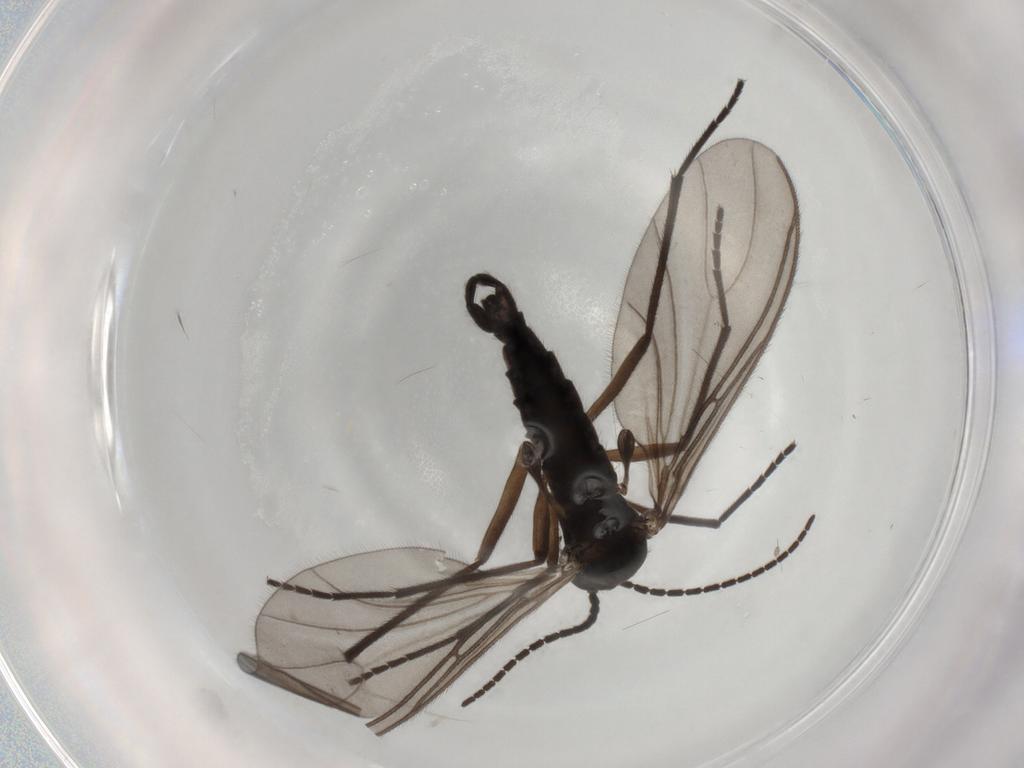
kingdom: Animalia
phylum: Arthropoda
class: Insecta
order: Diptera
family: Sciaridae
